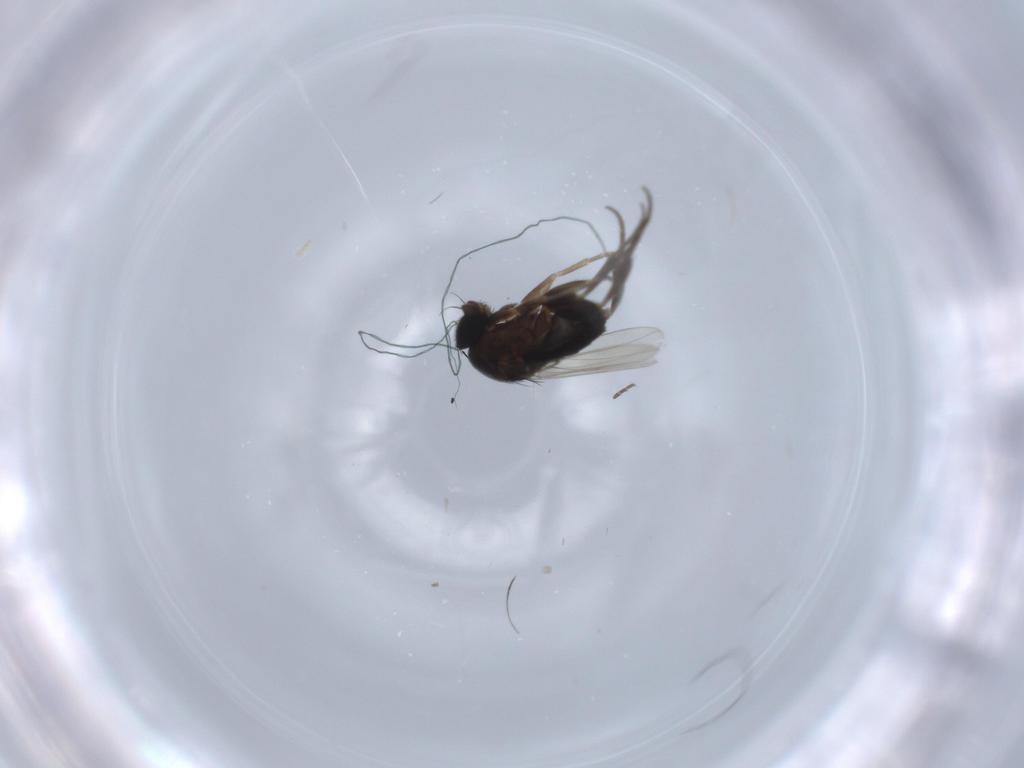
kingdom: Animalia
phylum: Arthropoda
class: Insecta
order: Diptera
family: Phoridae
